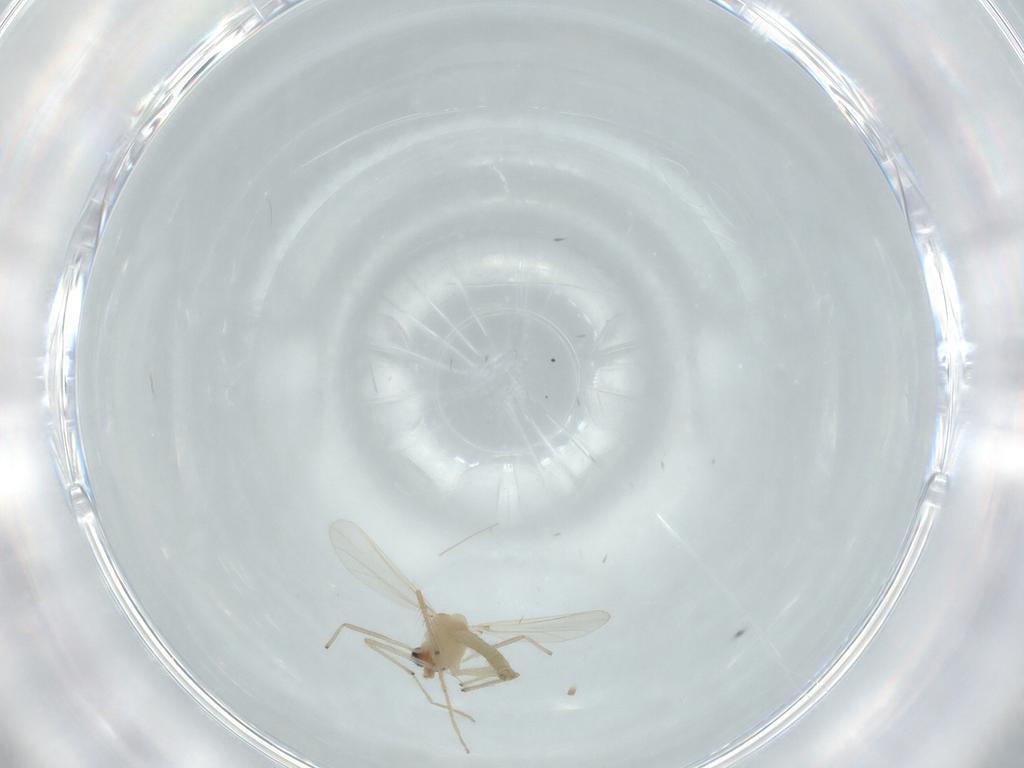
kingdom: Animalia
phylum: Arthropoda
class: Insecta
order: Diptera
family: Chironomidae
